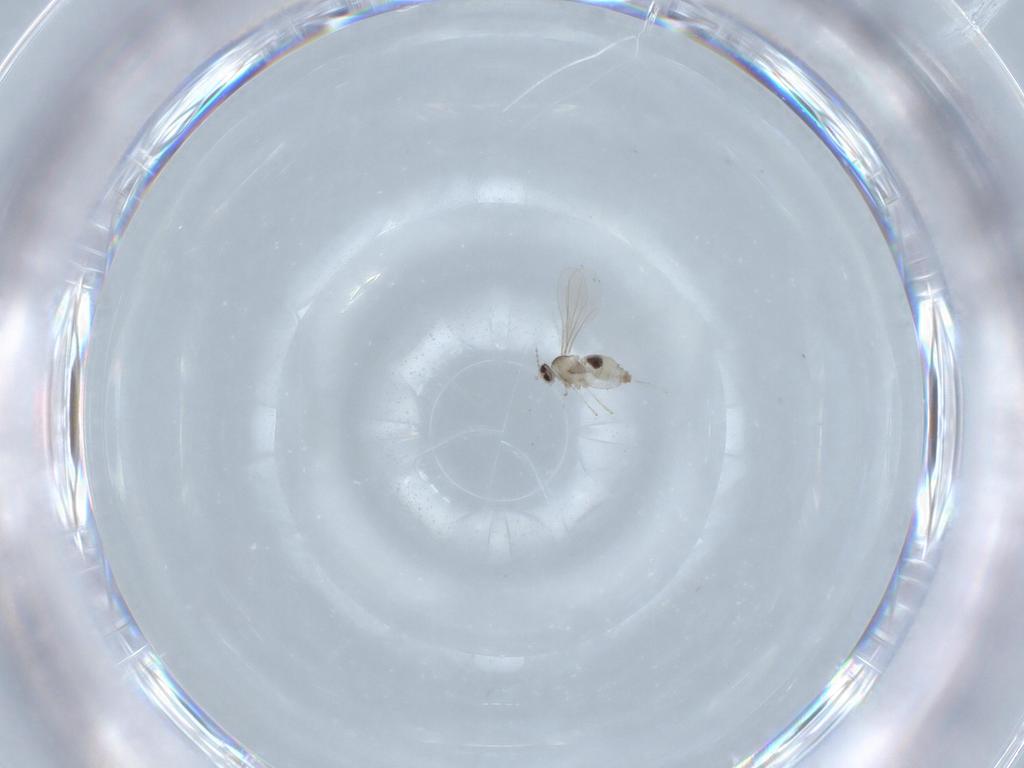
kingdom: Animalia
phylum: Arthropoda
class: Insecta
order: Diptera
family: Cecidomyiidae
